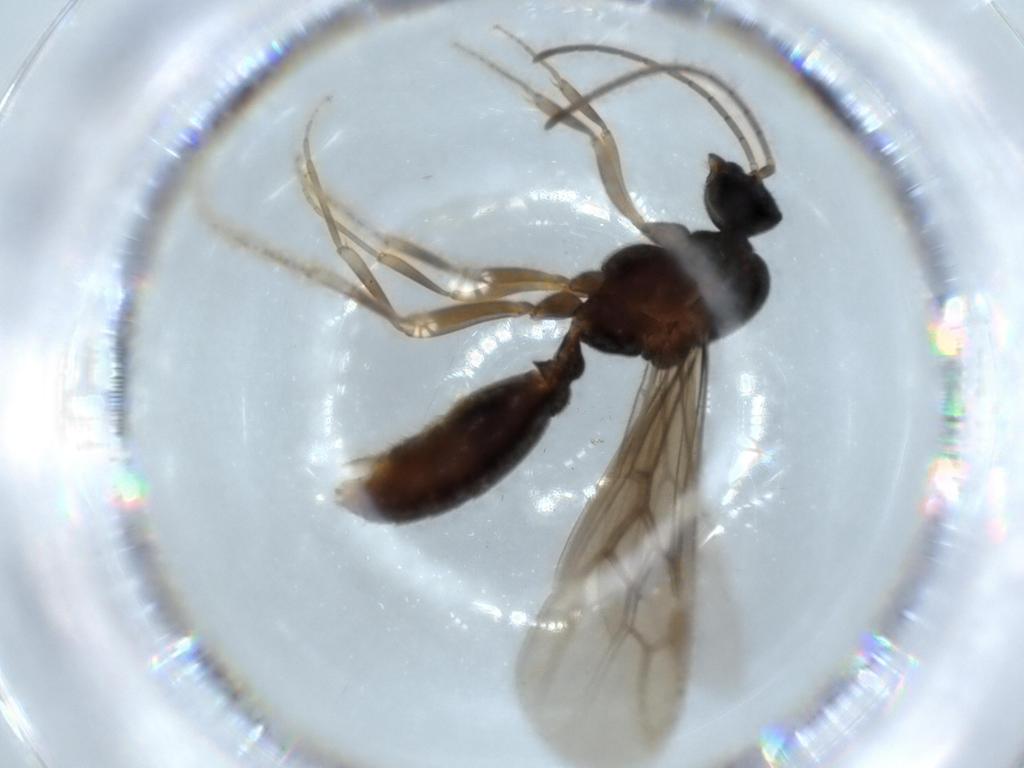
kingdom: Animalia
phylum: Arthropoda
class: Insecta
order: Hymenoptera
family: Formicidae
